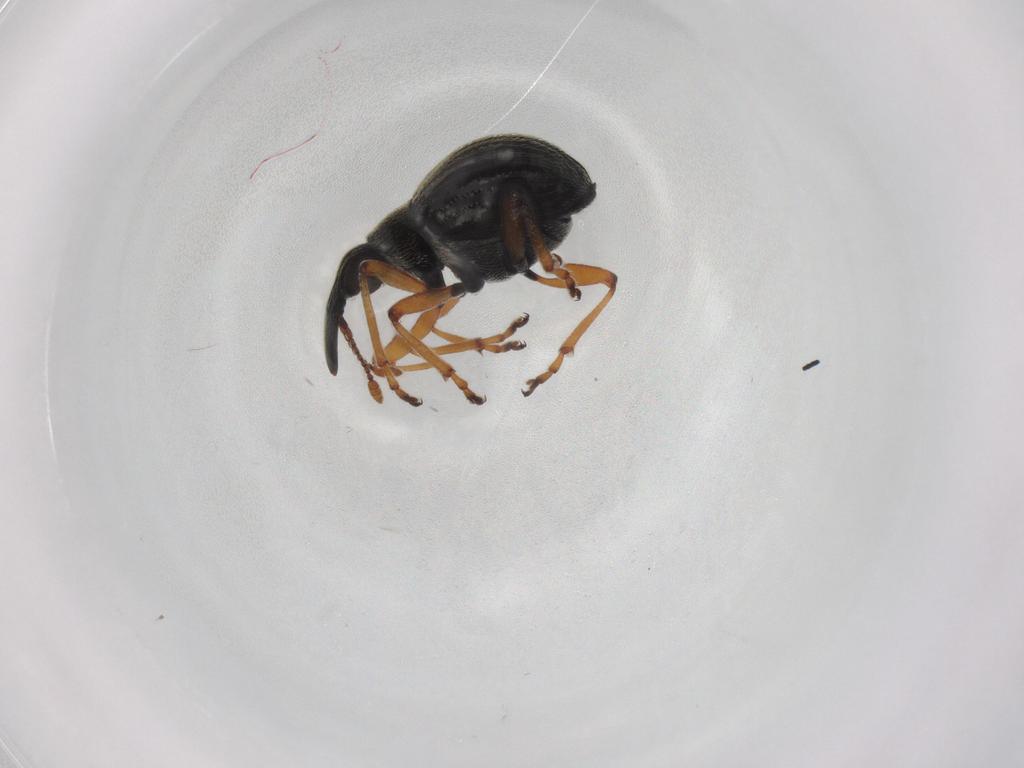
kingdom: Animalia
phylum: Arthropoda
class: Insecta
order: Coleoptera
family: Brentidae
